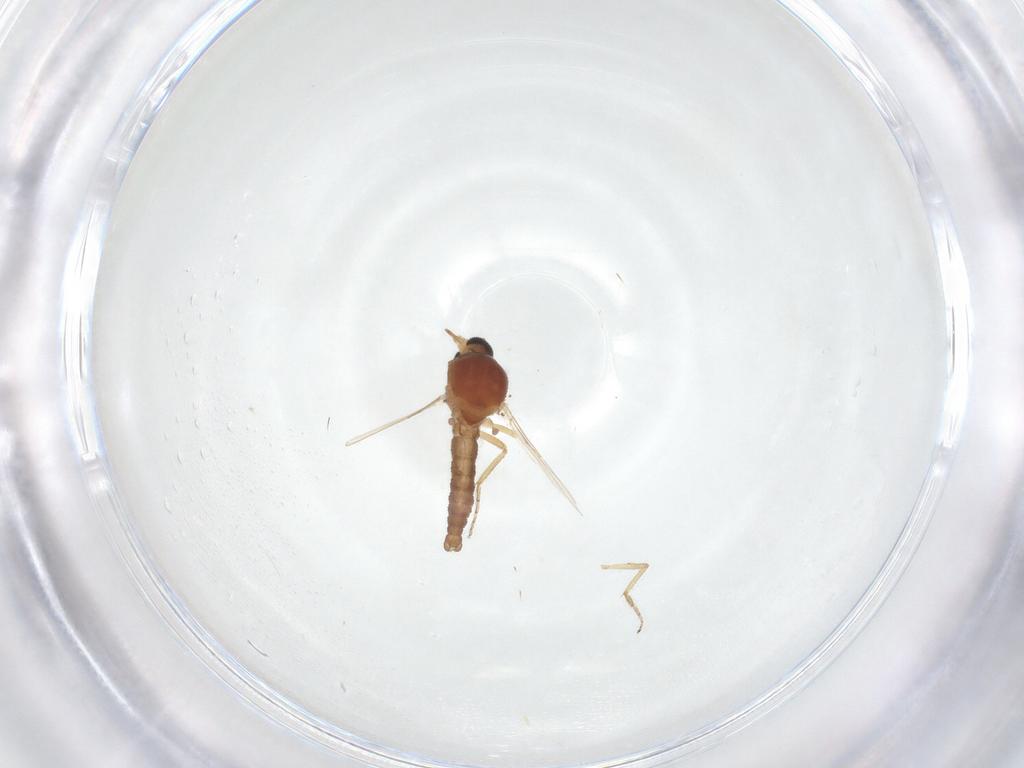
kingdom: Animalia
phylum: Arthropoda
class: Insecta
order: Diptera
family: Ceratopogonidae
